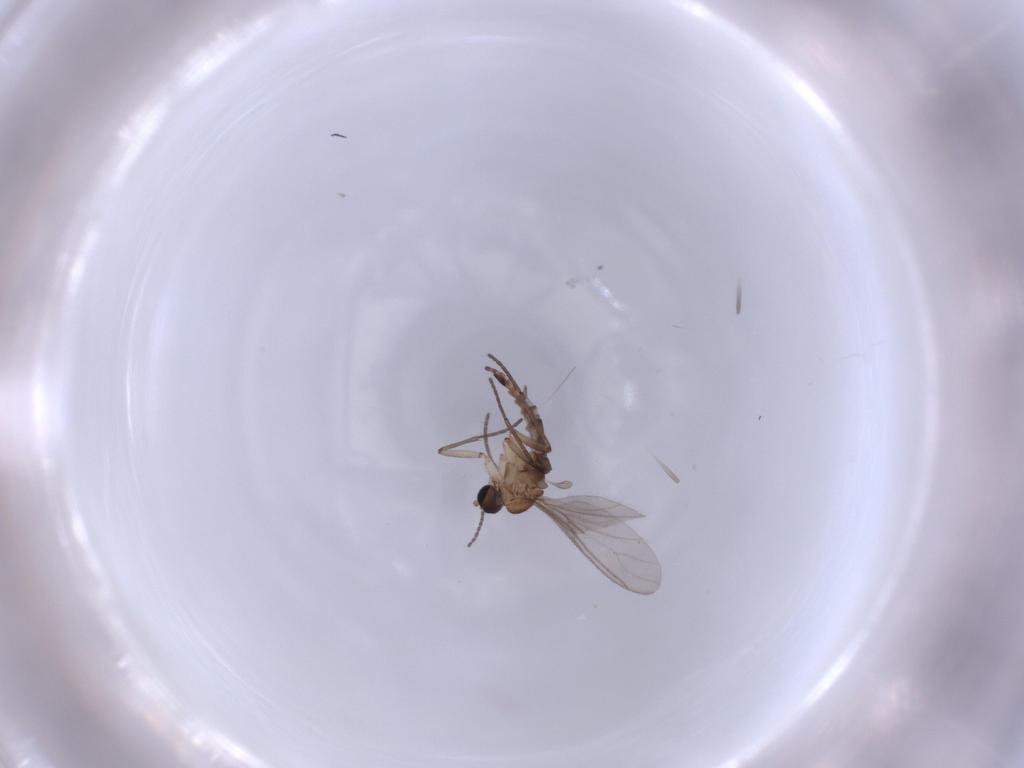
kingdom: Animalia
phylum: Arthropoda
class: Insecta
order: Diptera
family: Sciaridae
